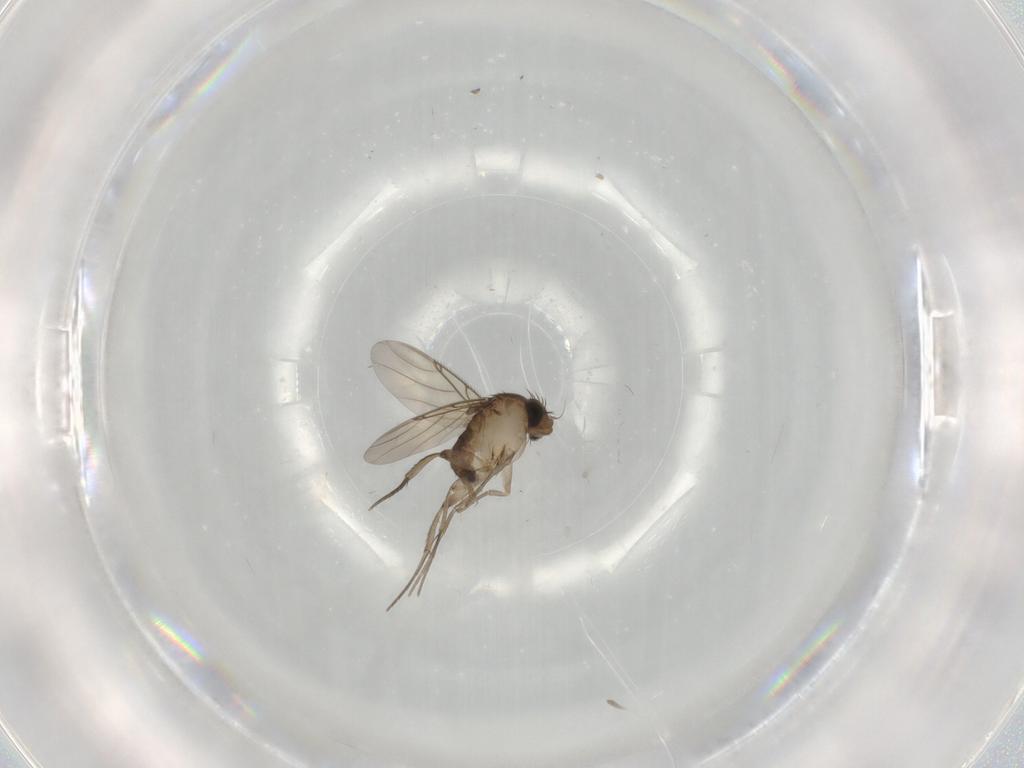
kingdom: Animalia
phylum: Arthropoda
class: Insecta
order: Diptera
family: Phoridae
